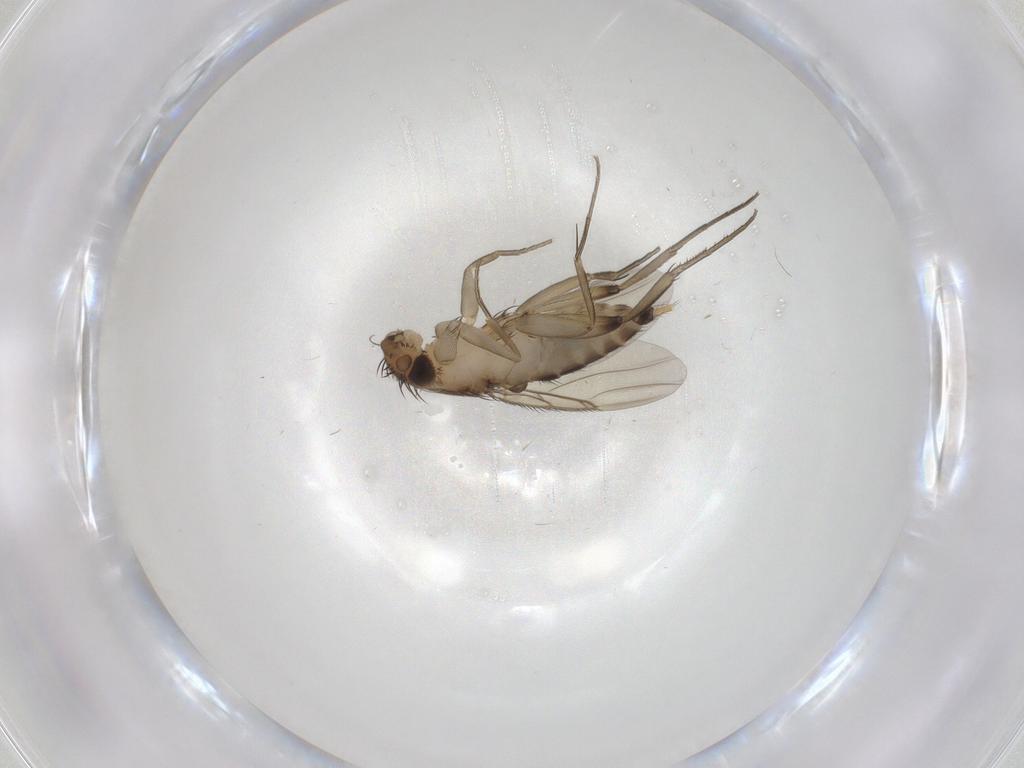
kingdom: Animalia
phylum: Arthropoda
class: Insecta
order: Diptera
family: Scatopsidae
